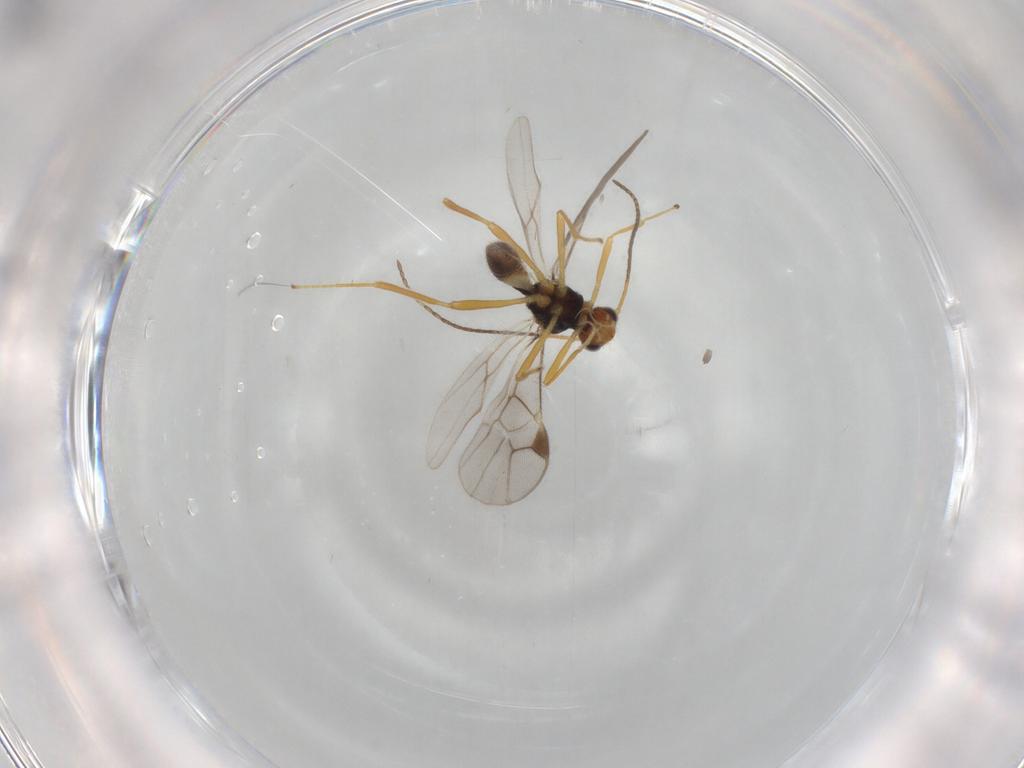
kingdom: Animalia
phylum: Arthropoda
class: Insecta
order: Hymenoptera
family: Braconidae
